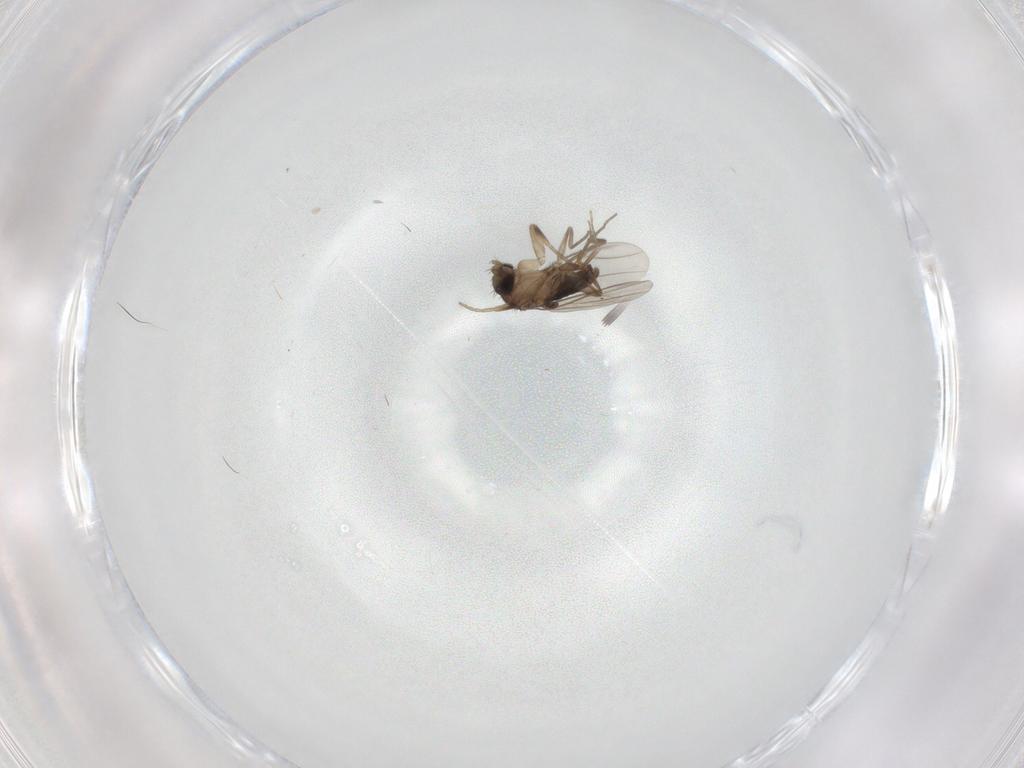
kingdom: Animalia
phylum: Arthropoda
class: Insecta
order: Diptera
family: Phoridae
